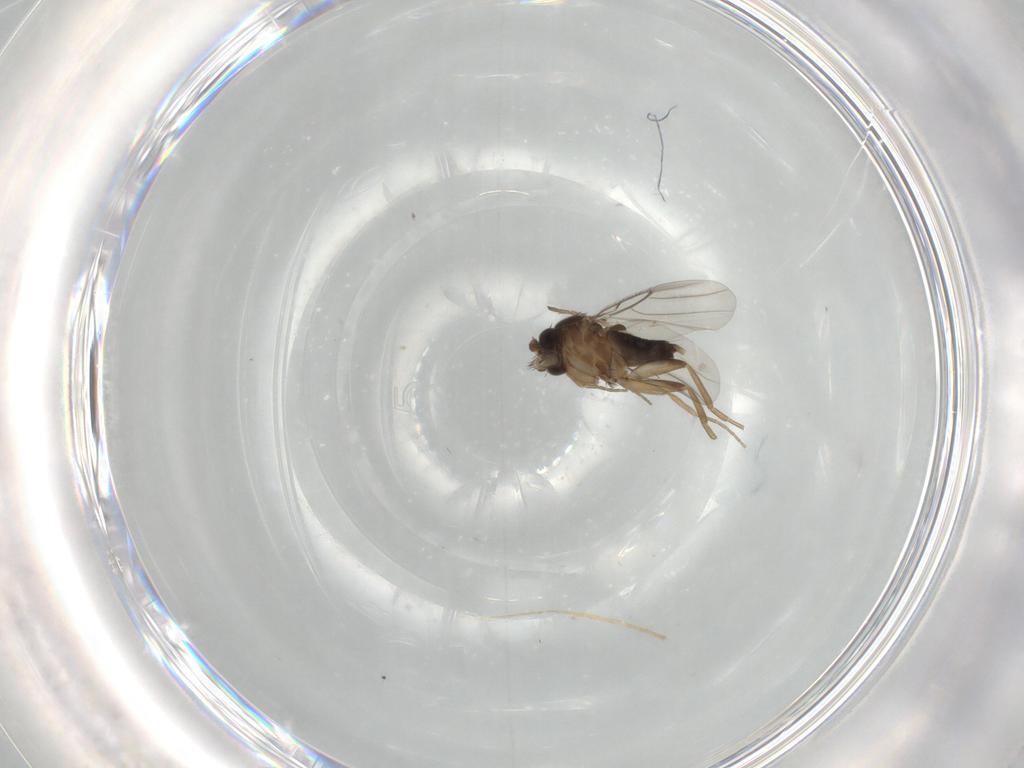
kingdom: Animalia
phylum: Arthropoda
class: Insecta
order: Diptera
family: Phoridae
